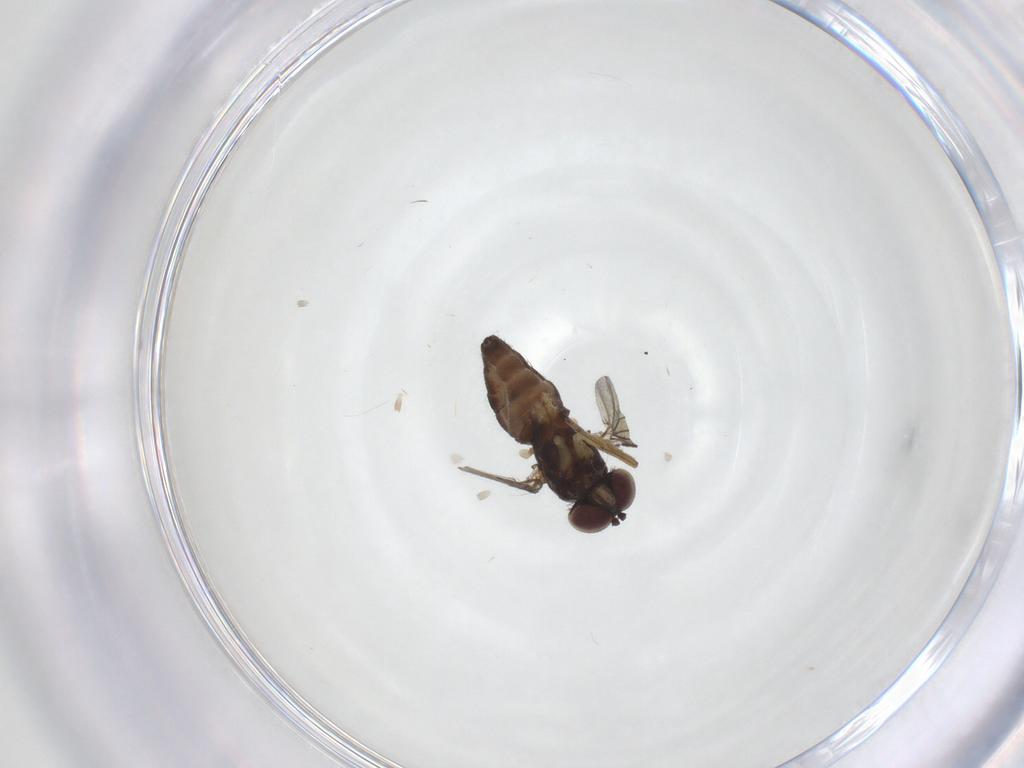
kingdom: Animalia
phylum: Arthropoda
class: Insecta
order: Diptera
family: Dolichopodidae
